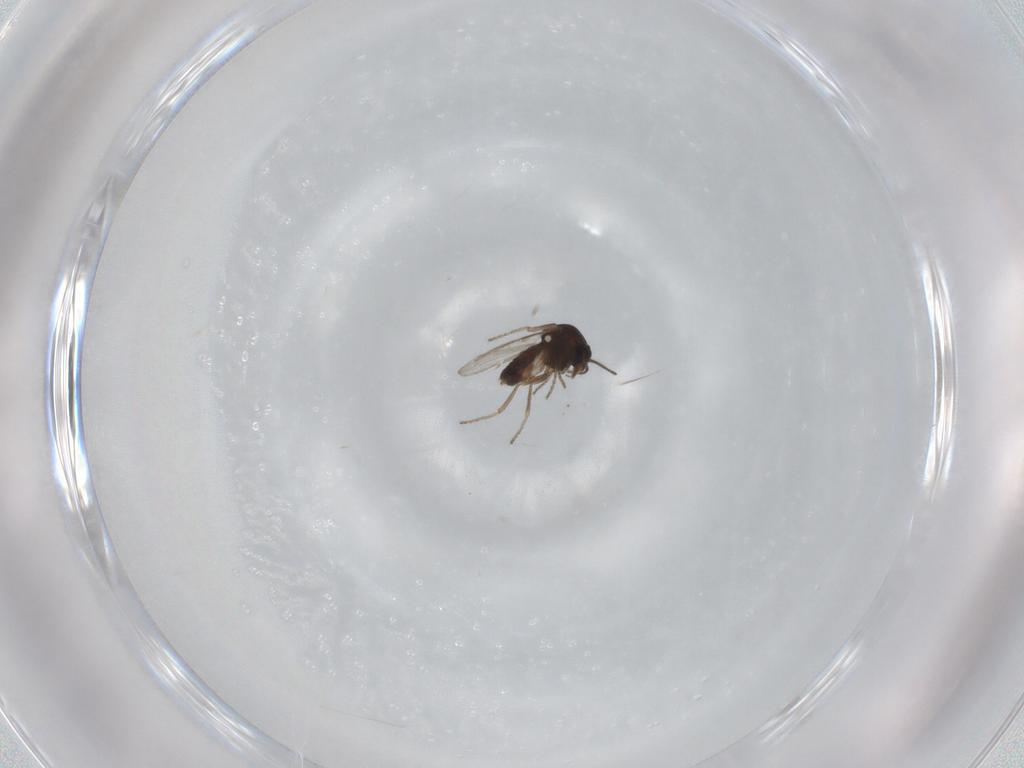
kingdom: Animalia
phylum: Arthropoda
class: Insecta
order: Diptera
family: Ceratopogonidae
